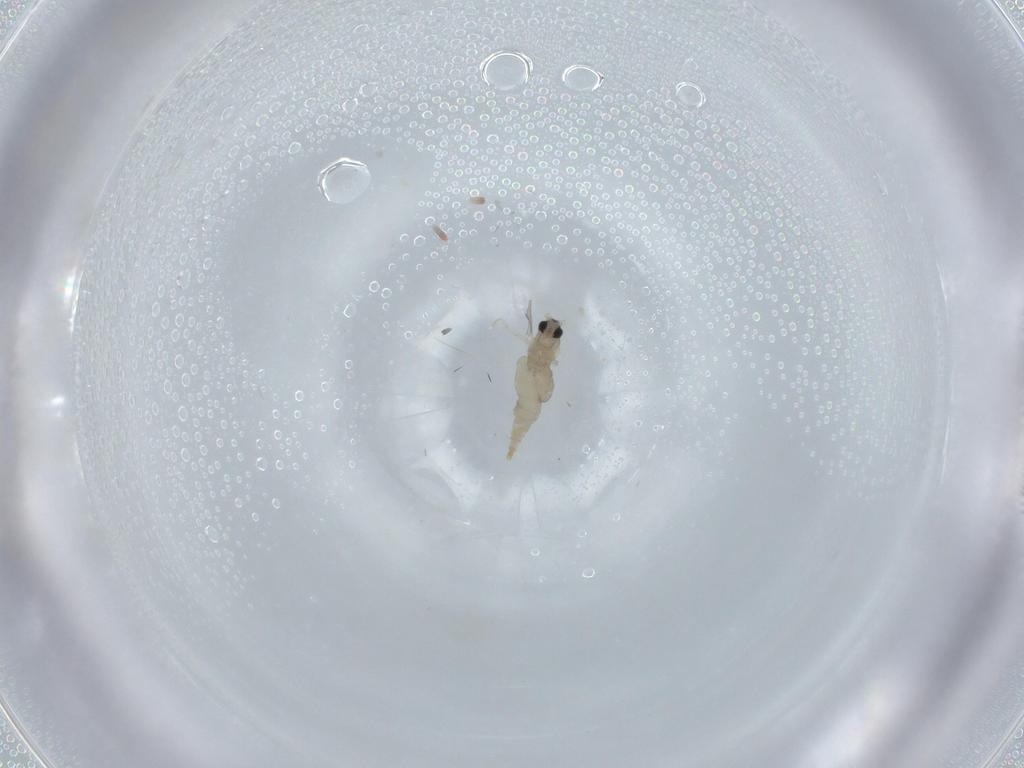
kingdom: Animalia
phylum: Arthropoda
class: Insecta
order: Diptera
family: Cecidomyiidae
